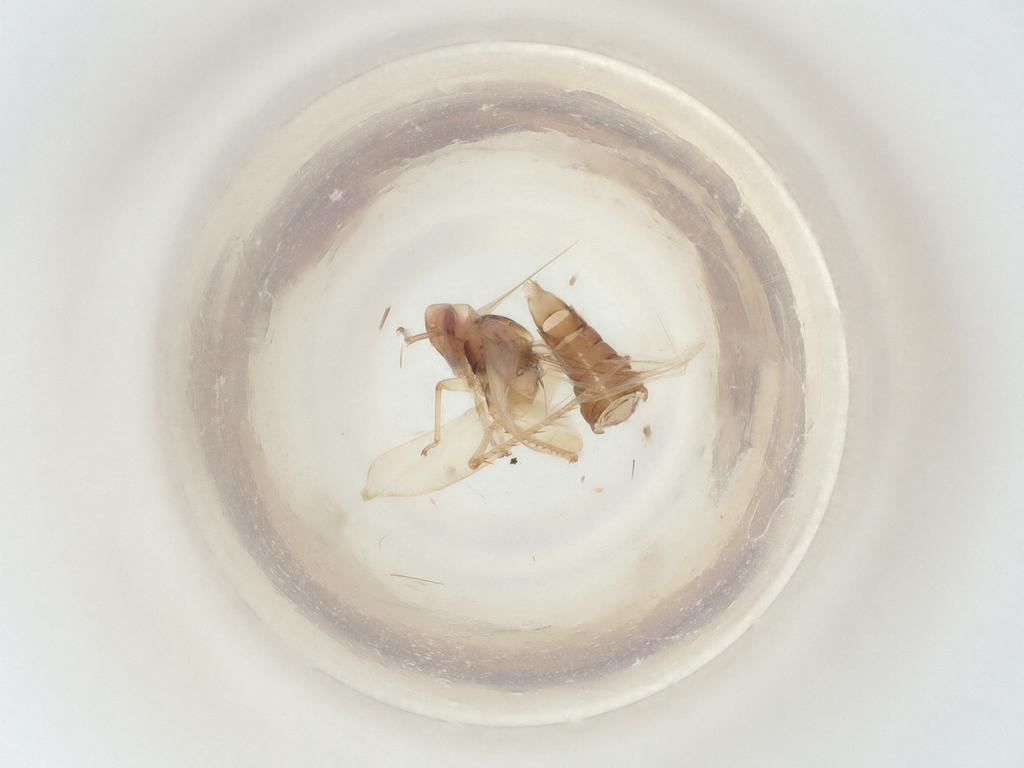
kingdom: Animalia
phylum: Arthropoda
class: Insecta
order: Hemiptera
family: Cicadellidae
